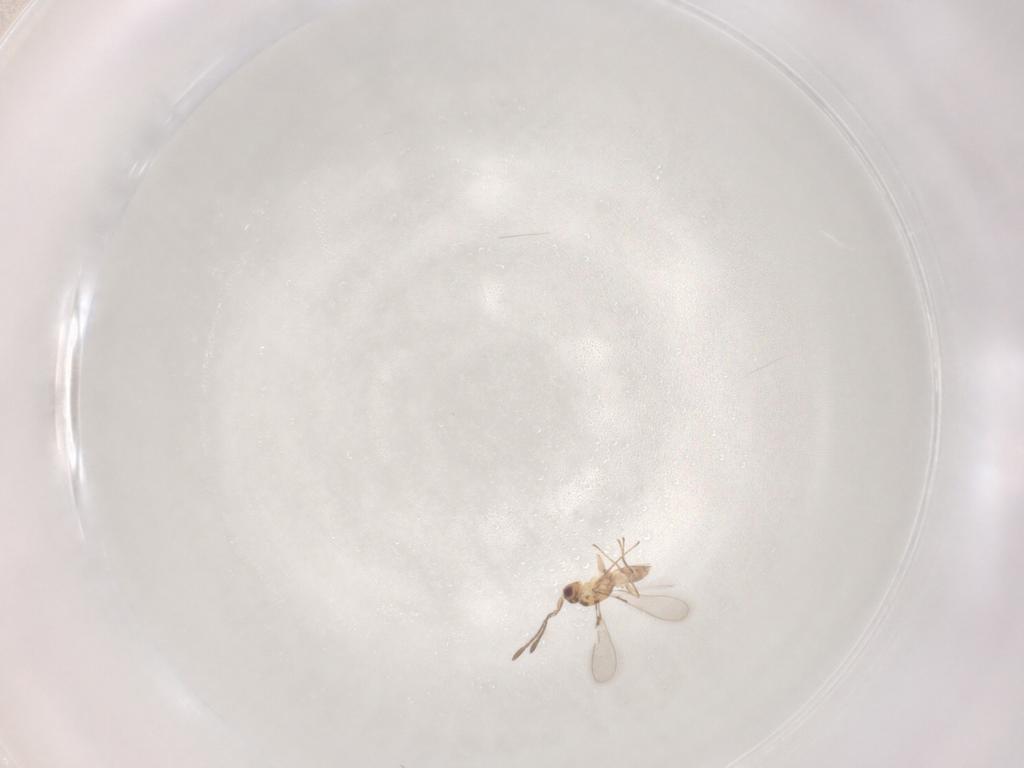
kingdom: Animalia
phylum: Arthropoda
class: Insecta
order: Hymenoptera
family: Mymaridae
